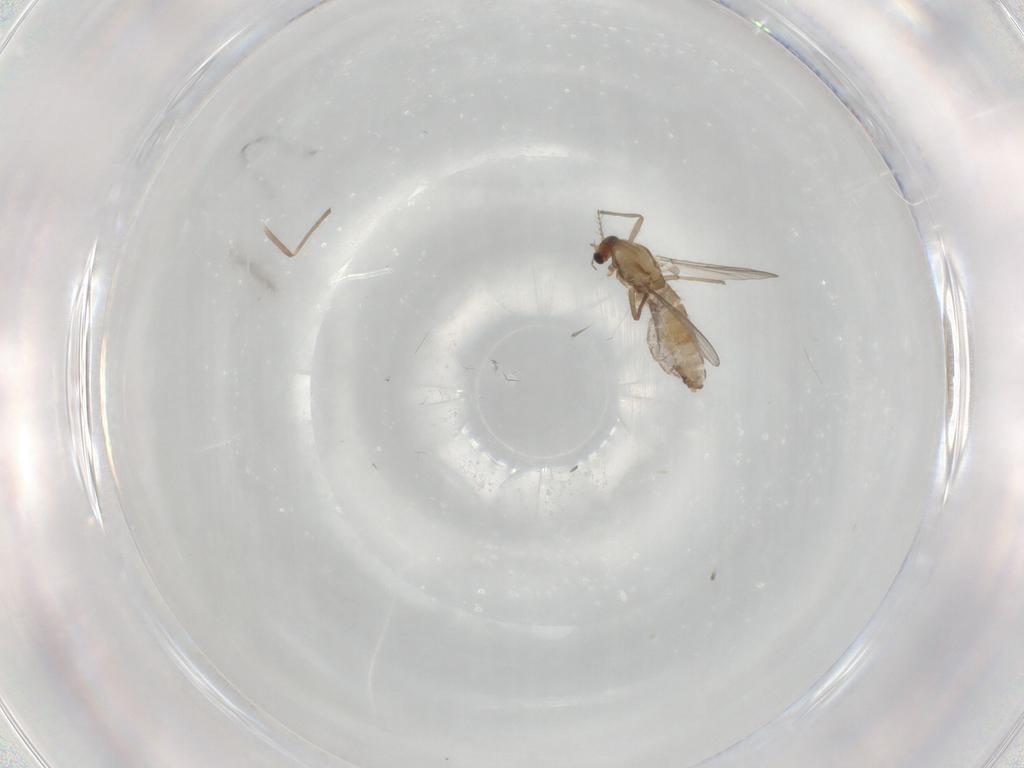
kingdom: Animalia
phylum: Arthropoda
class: Insecta
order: Diptera
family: Chironomidae
